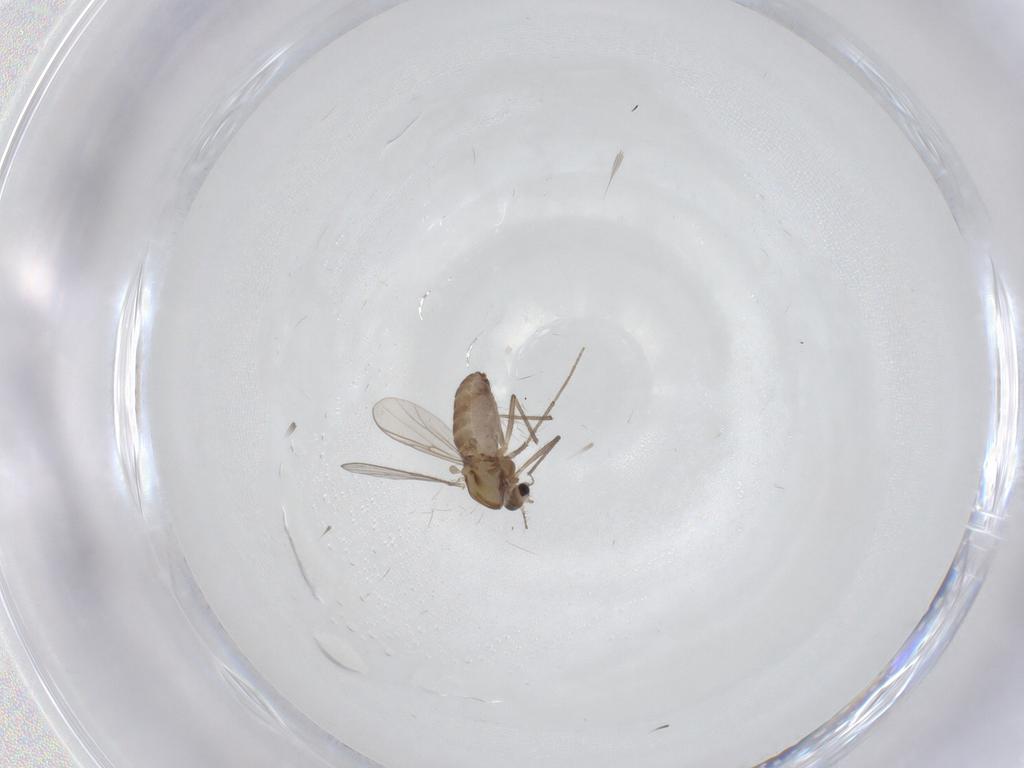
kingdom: Animalia
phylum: Arthropoda
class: Insecta
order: Diptera
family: Chironomidae
